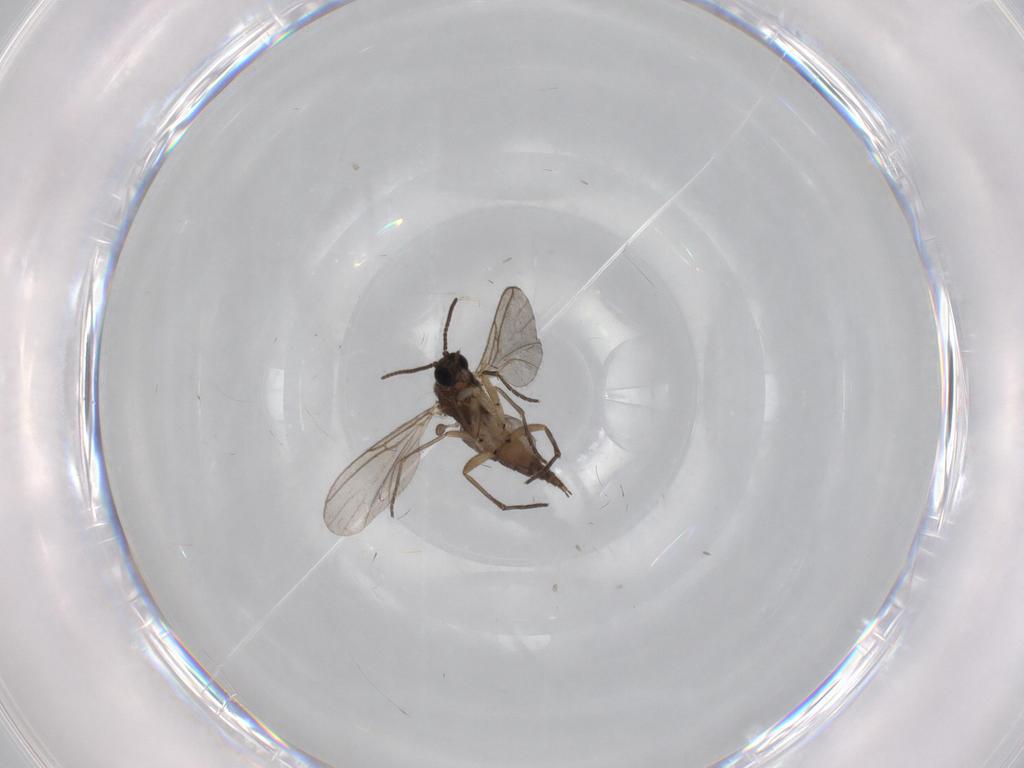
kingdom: Animalia
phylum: Arthropoda
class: Insecta
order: Diptera
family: Sciaridae
